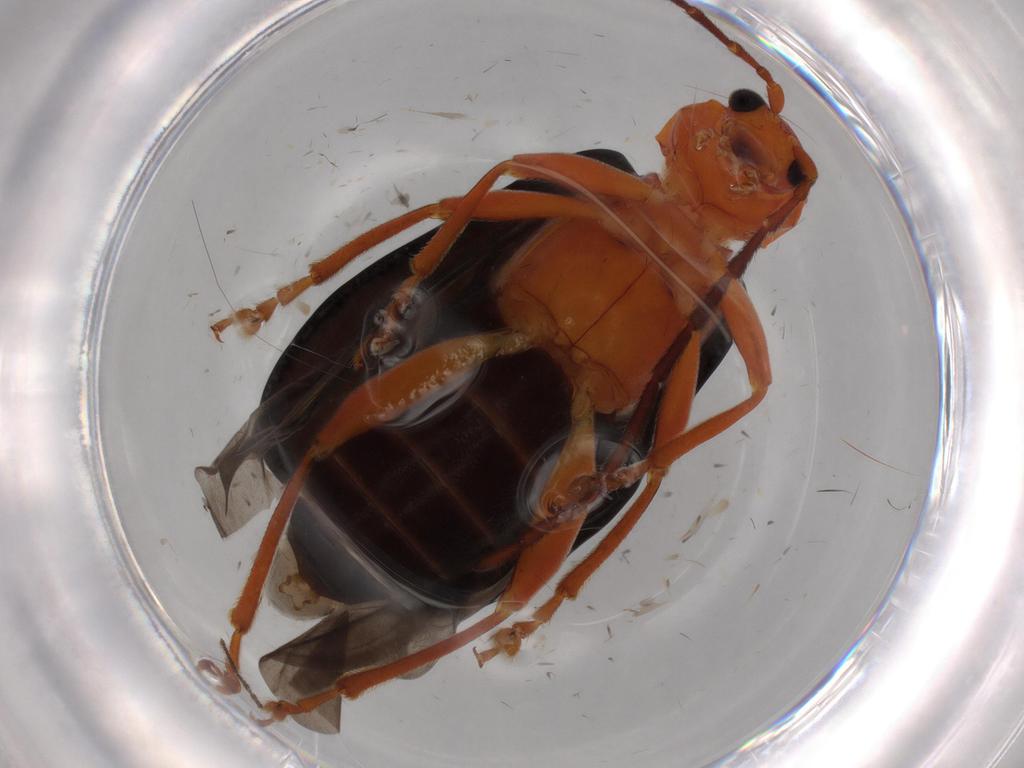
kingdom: Animalia
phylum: Arthropoda
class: Insecta
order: Coleoptera
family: Chrysomelidae
